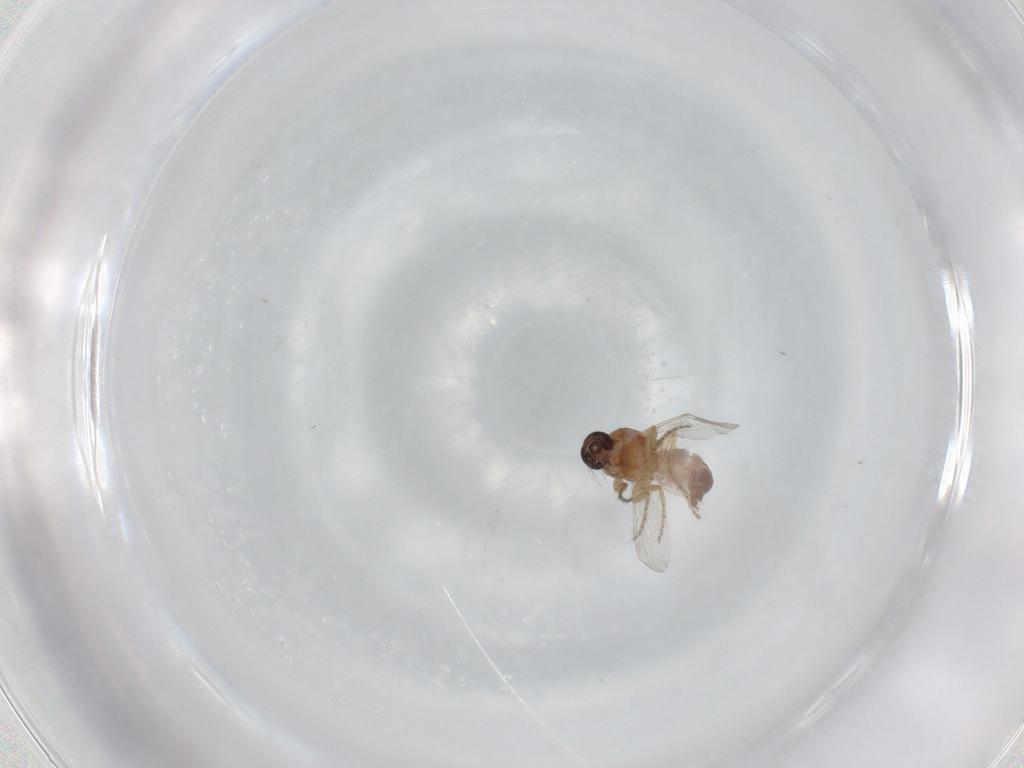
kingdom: Animalia
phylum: Arthropoda
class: Insecta
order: Diptera
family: Ceratopogonidae
